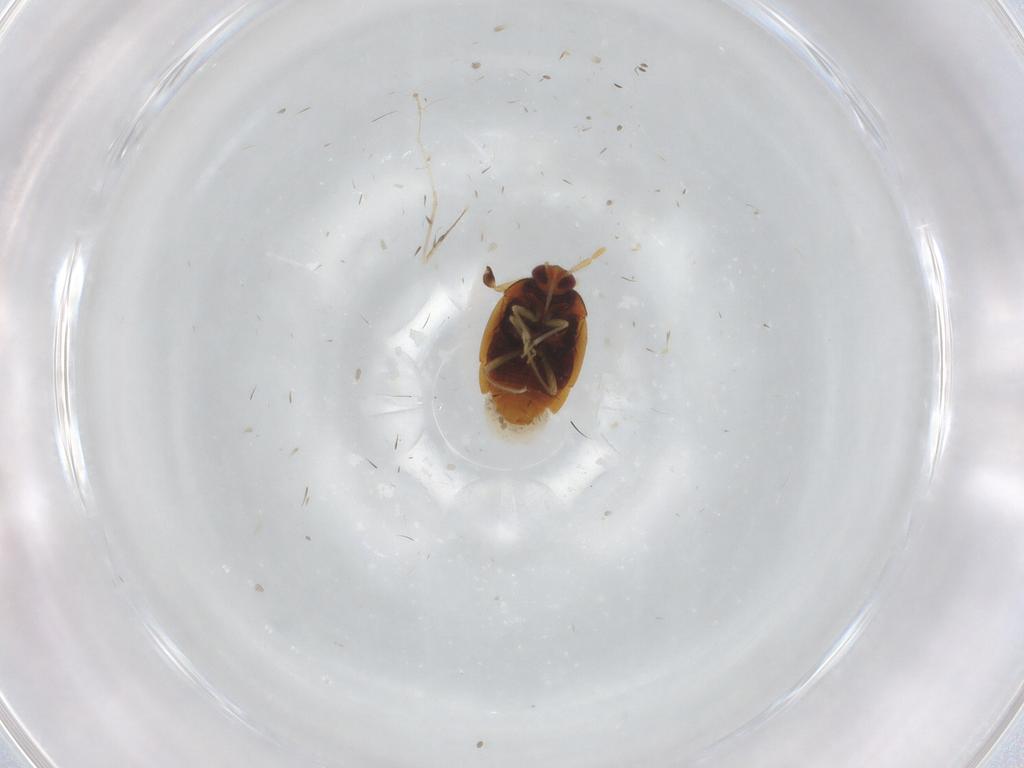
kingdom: Animalia
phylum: Arthropoda
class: Insecta
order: Hemiptera
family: Anthocoridae
